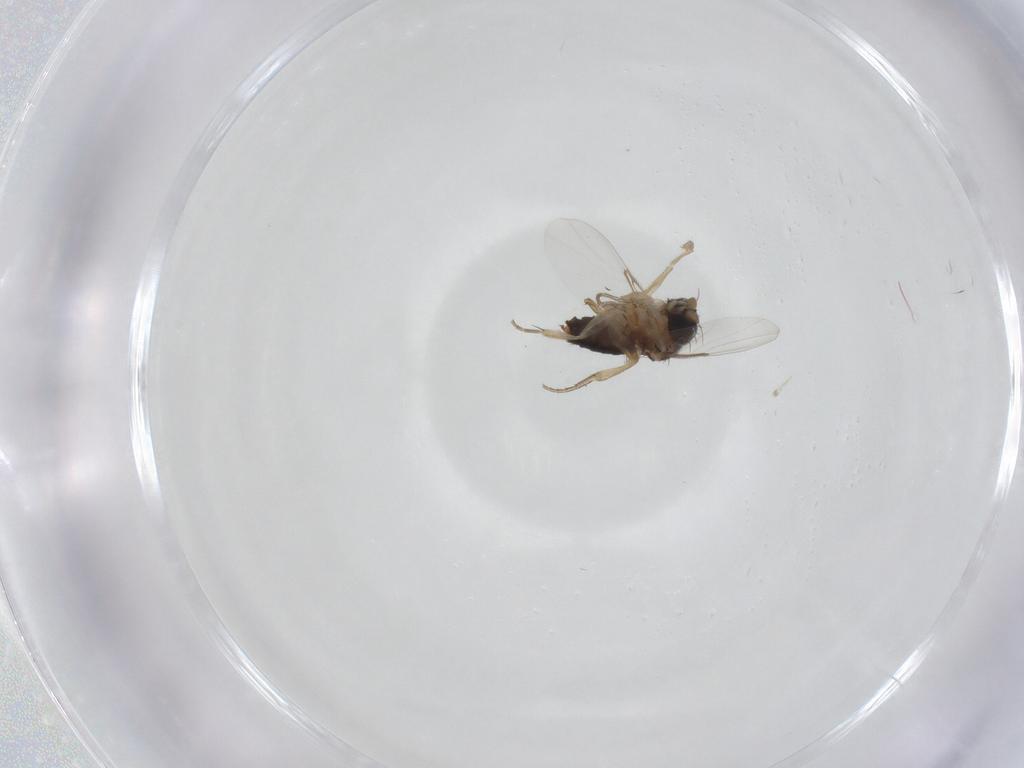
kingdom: Animalia
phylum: Arthropoda
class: Insecta
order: Diptera
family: Phoridae
